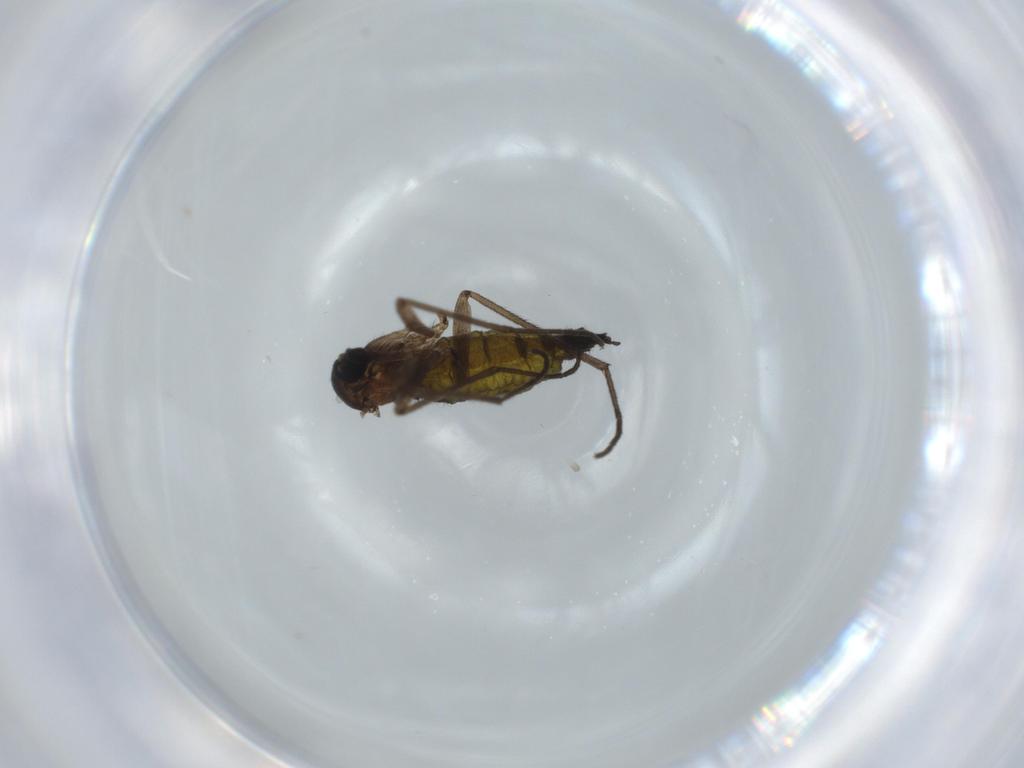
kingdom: Animalia
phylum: Arthropoda
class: Insecta
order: Diptera
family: Sciaridae
